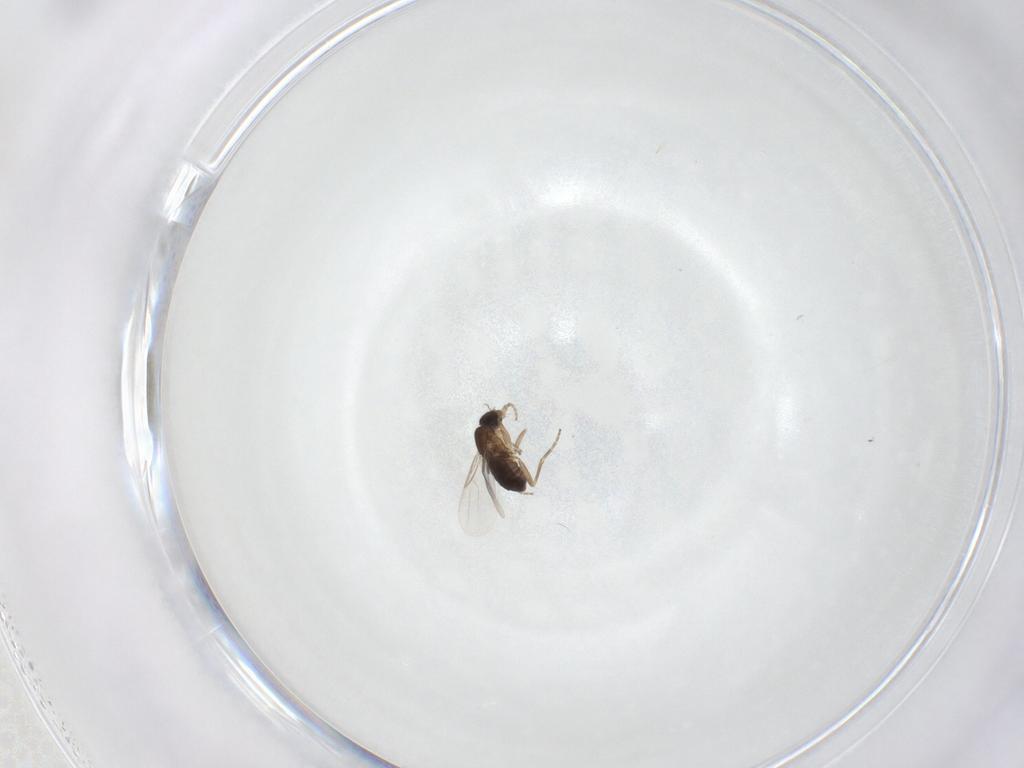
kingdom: Animalia
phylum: Arthropoda
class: Insecta
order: Diptera
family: Phoridae
